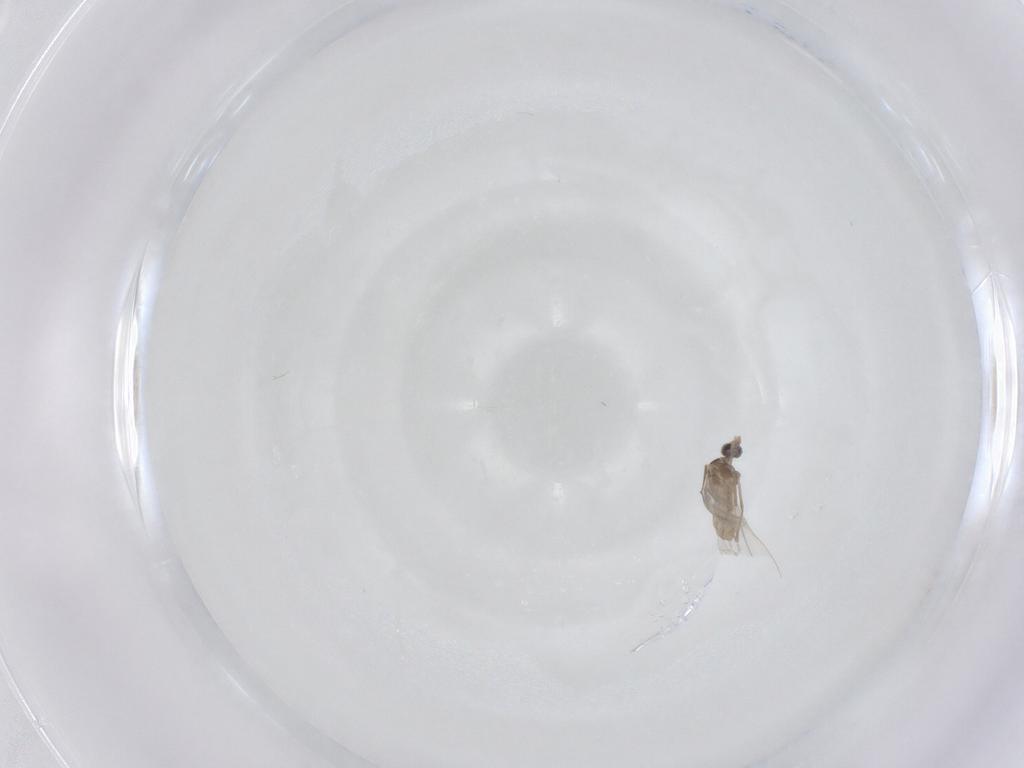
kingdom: Animalia
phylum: Arthropoda
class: Insecta
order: Diptera
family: Cecidomyiidae
